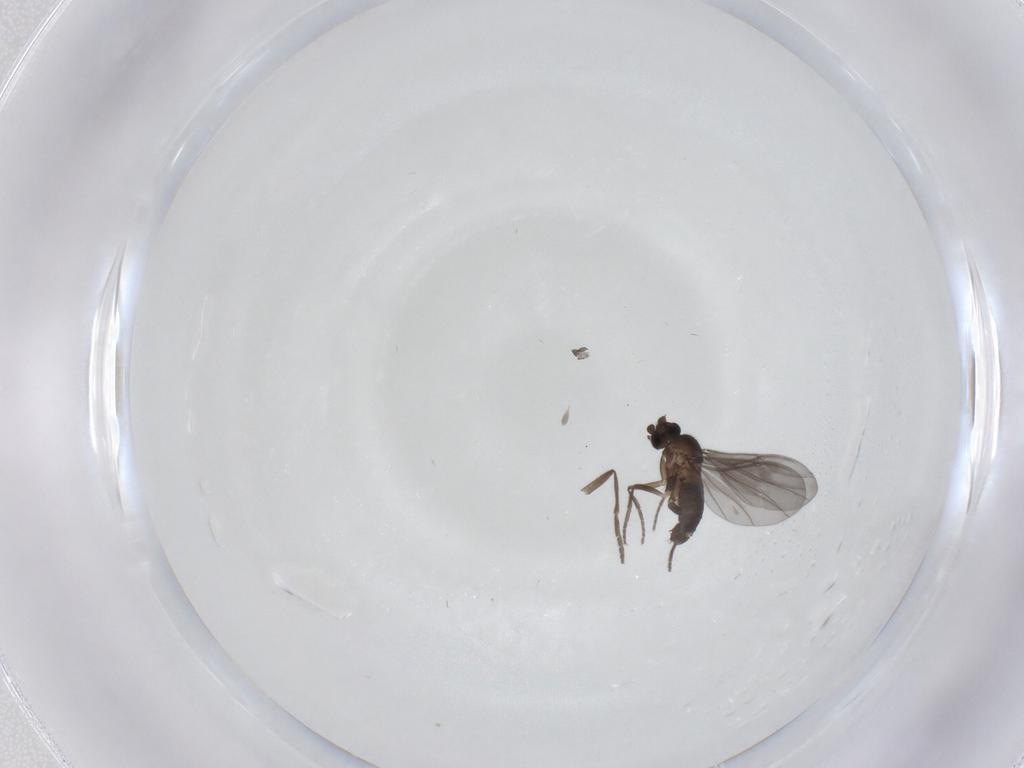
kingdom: Animalia
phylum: Arthropoda
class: Insecta
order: Diptera
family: Phoridae
